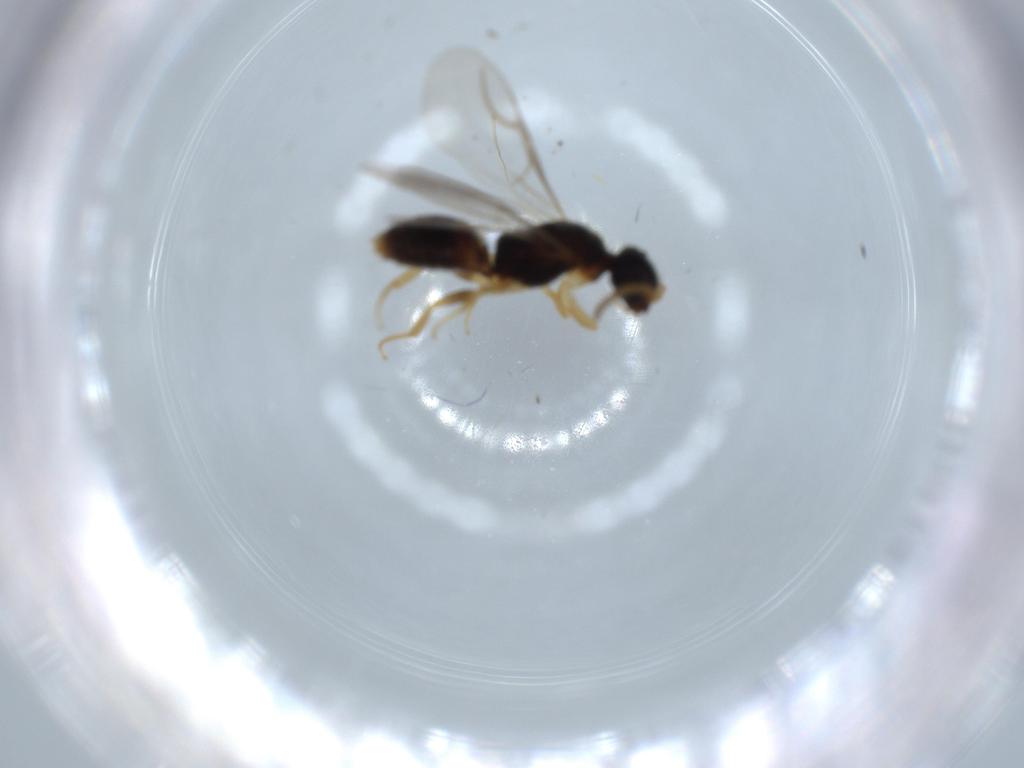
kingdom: Animalia
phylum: Arthropoda
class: Insecta
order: Hymenoptera
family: Bethylidae
